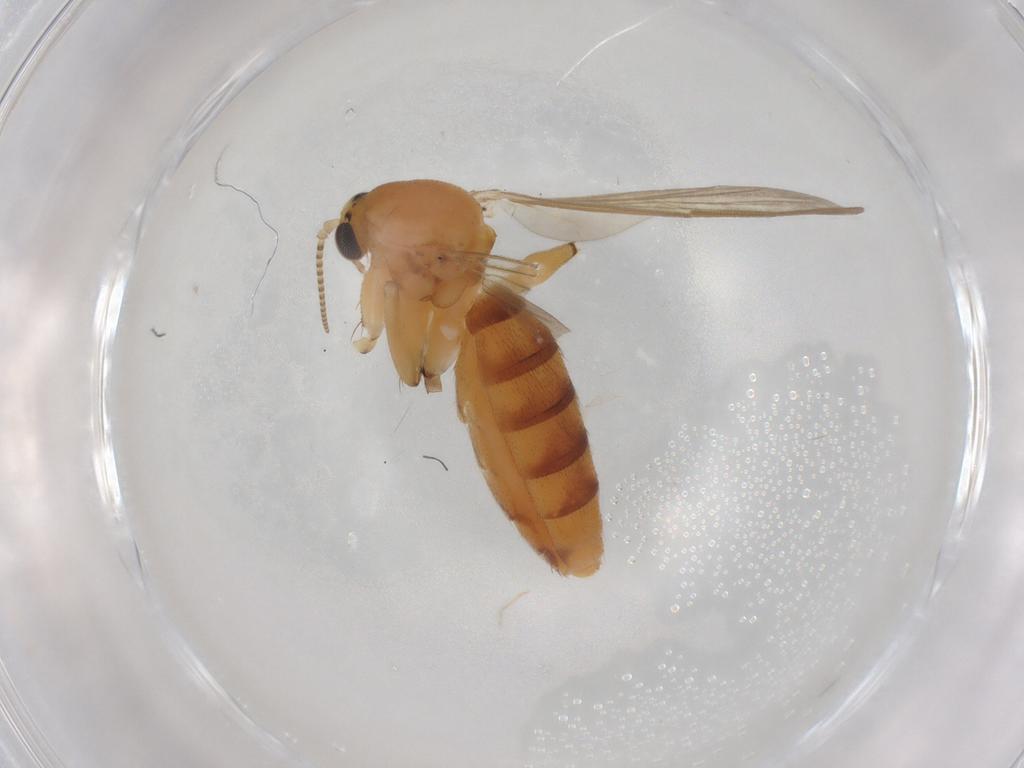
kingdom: Animalia
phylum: Arthropoda
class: Insecta
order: Diptera
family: Mycetophilidae
